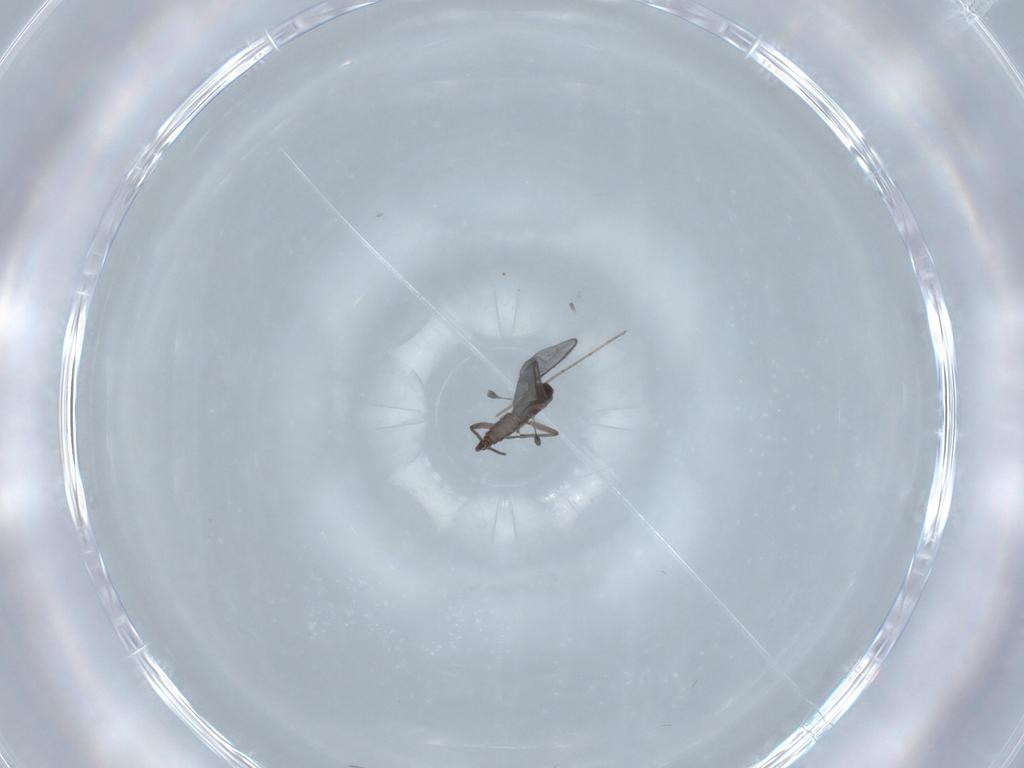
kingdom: Animalia
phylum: Arthropoda
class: Insecta
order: Diptera
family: Sciaridae
